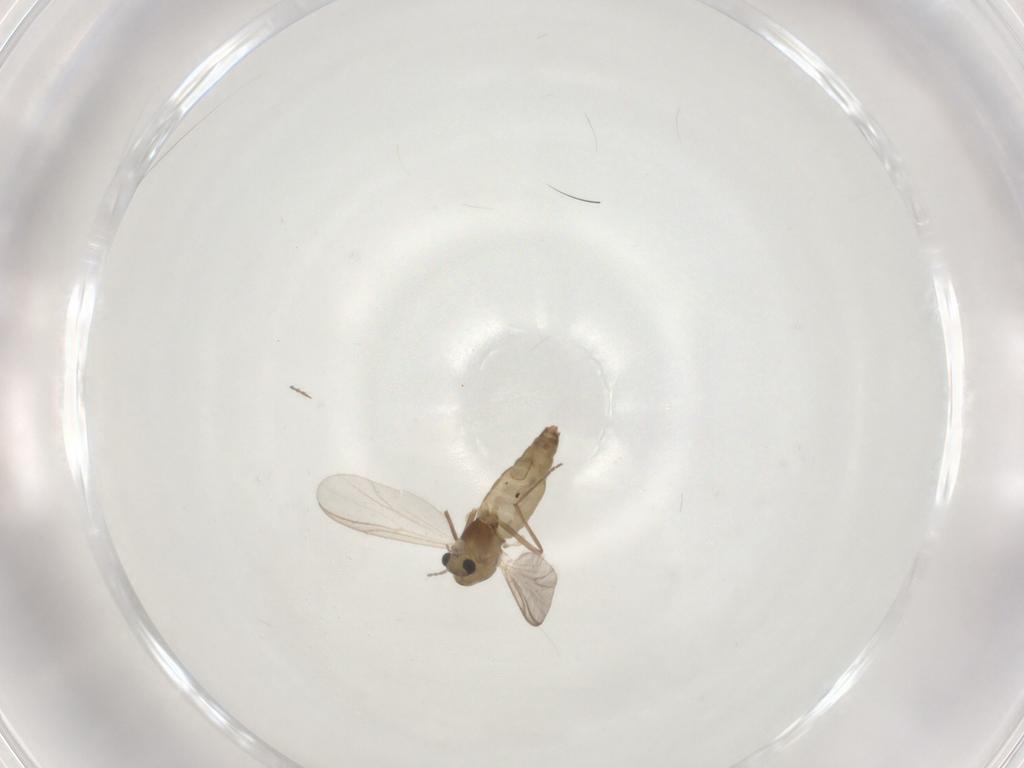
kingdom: Animalia
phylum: Arthropoda
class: Insecta
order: Diptera
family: Chironomidae
